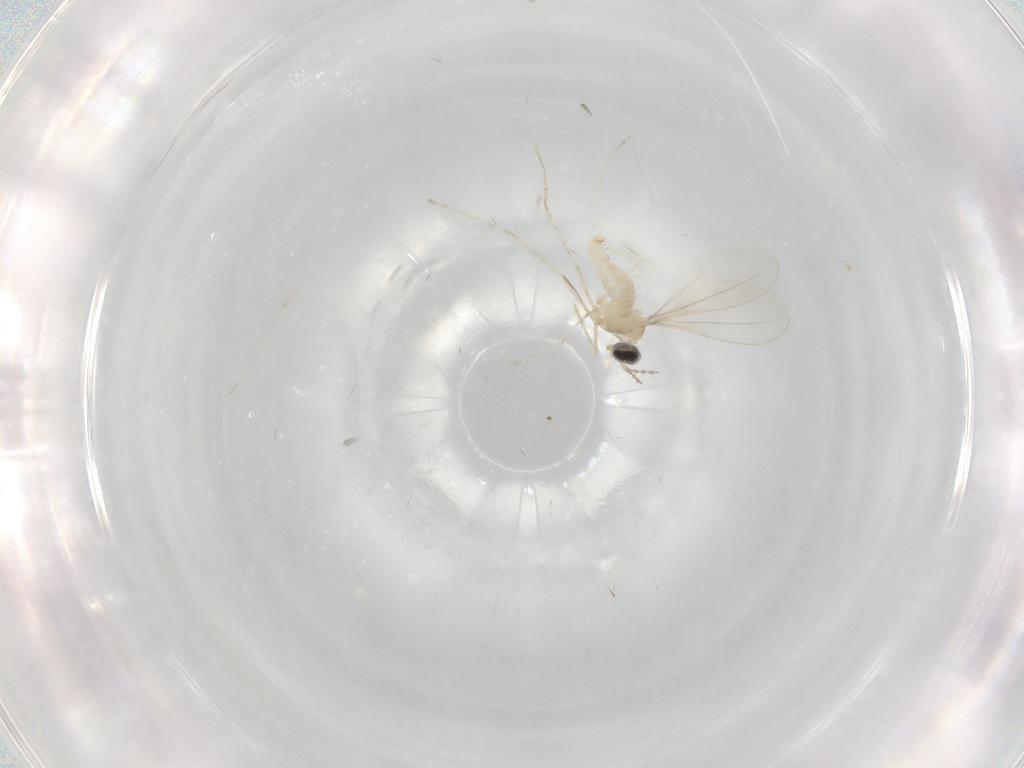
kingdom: Animalia
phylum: Arthropoda
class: Insecta
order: Diptera
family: Cecidomyiidae
